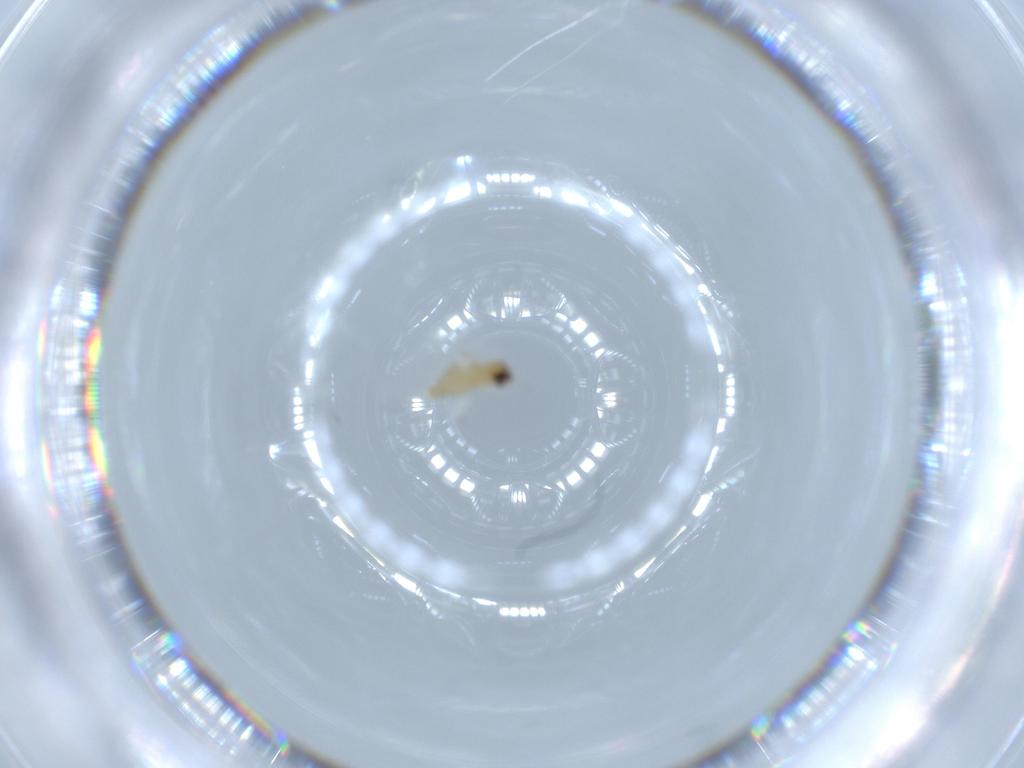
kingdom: Animalia
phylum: Arthropoda
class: Insecta
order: Diptera
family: Cecidomyiidae
